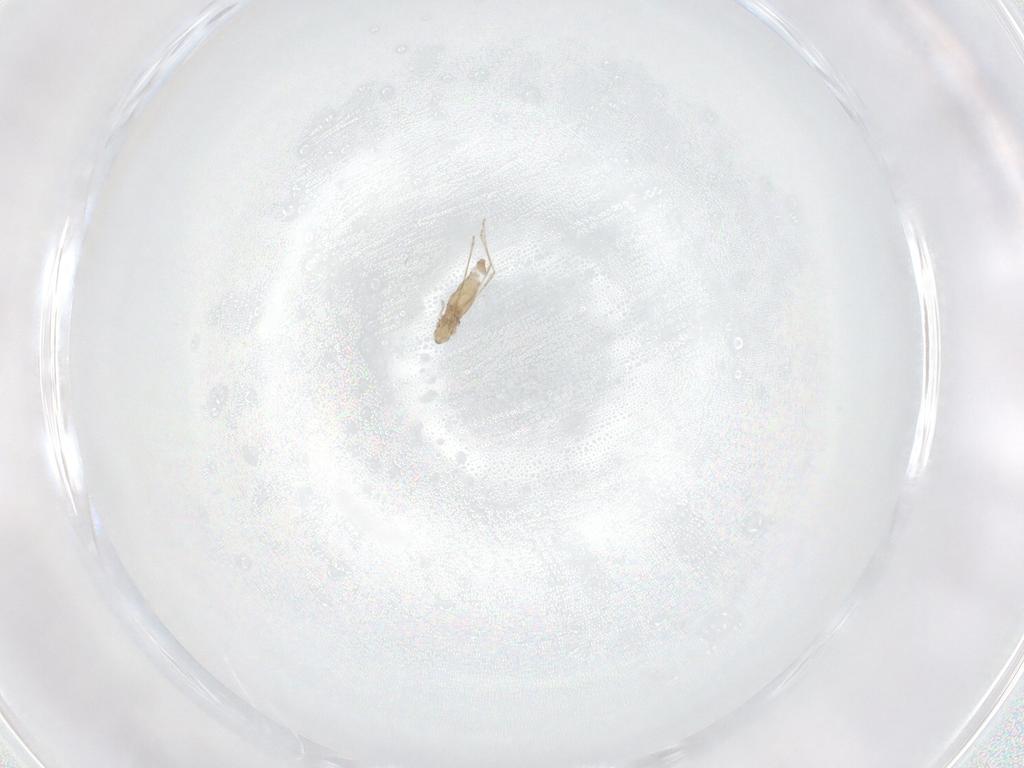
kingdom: Animalia
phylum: Arthropoda
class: Insecta
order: Diptera
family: Cecidomyiidae
